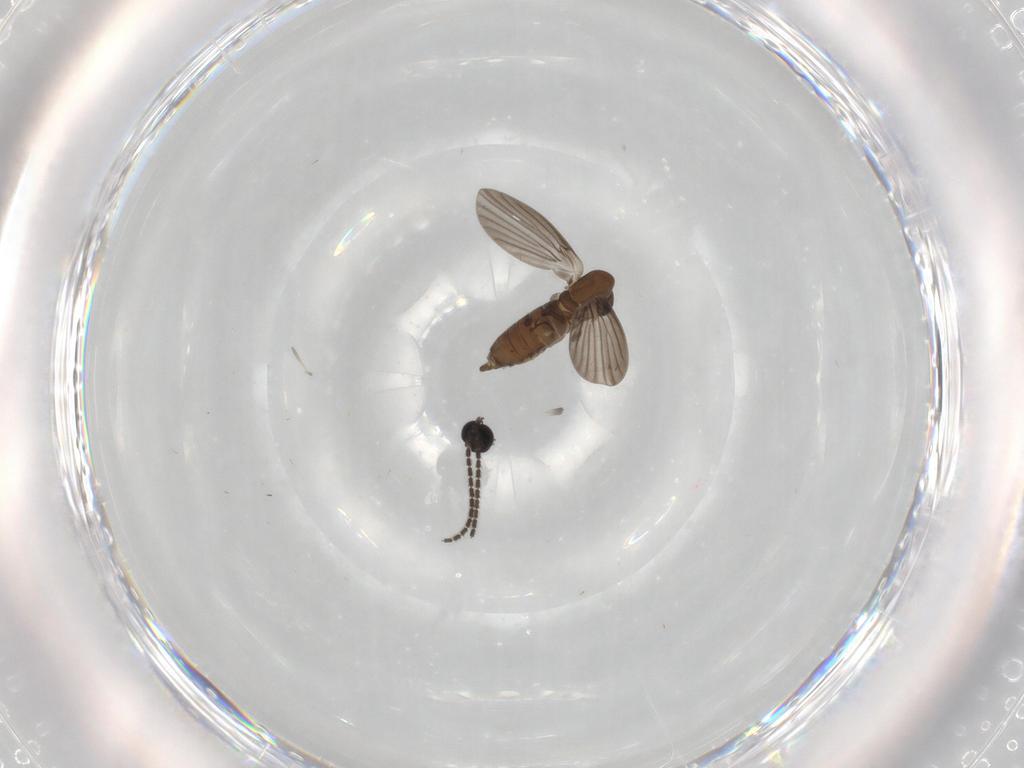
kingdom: Animalia
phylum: Arthropoda
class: Insecta
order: Diptera
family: Sciaridae
